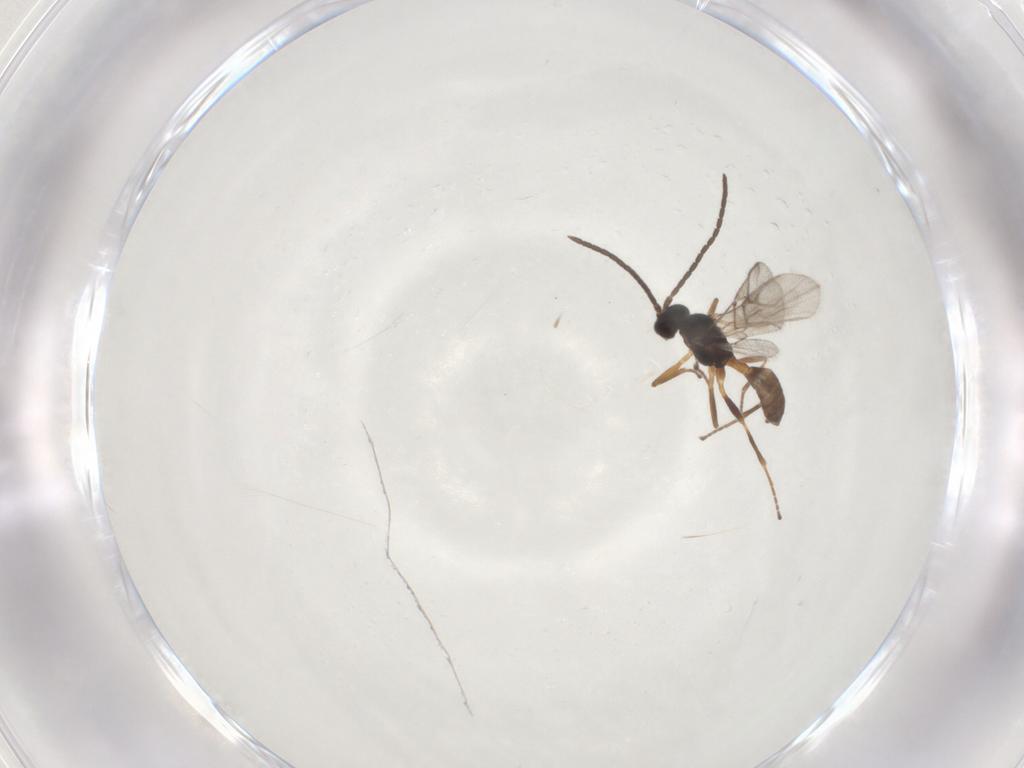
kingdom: Animalia
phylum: Arthropoda
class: Insecta
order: Hymenoptera
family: Braconidae
